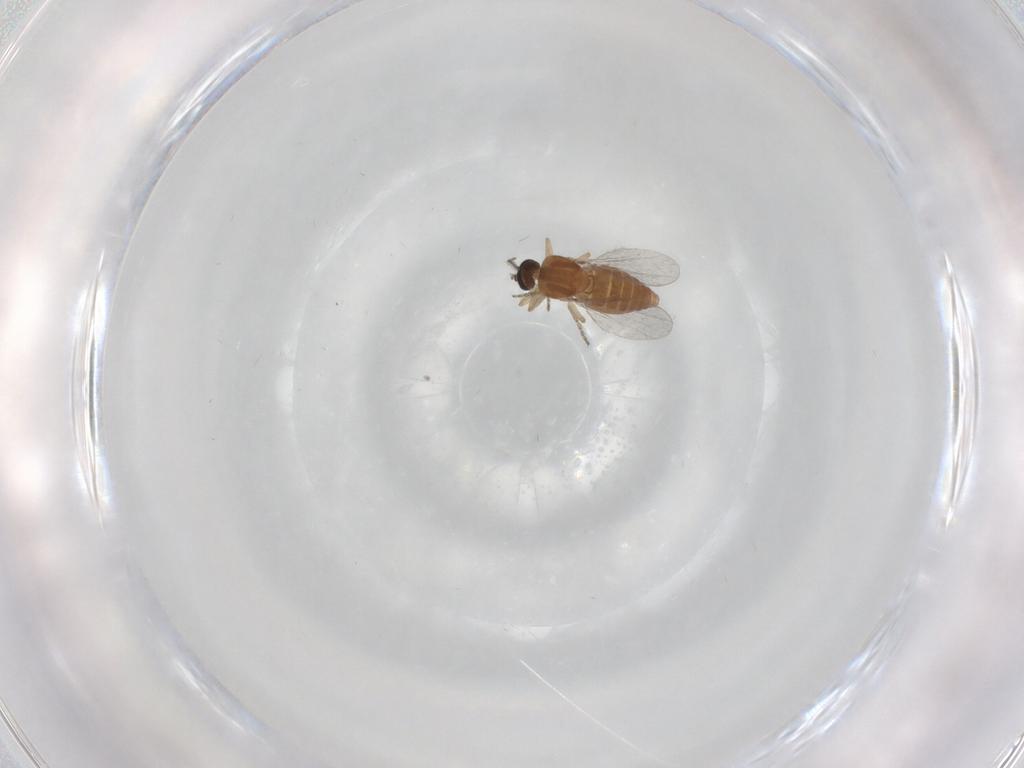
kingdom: Animalia
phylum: Arthropoda
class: Insecta
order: Diptera
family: Ceratopogonidae
